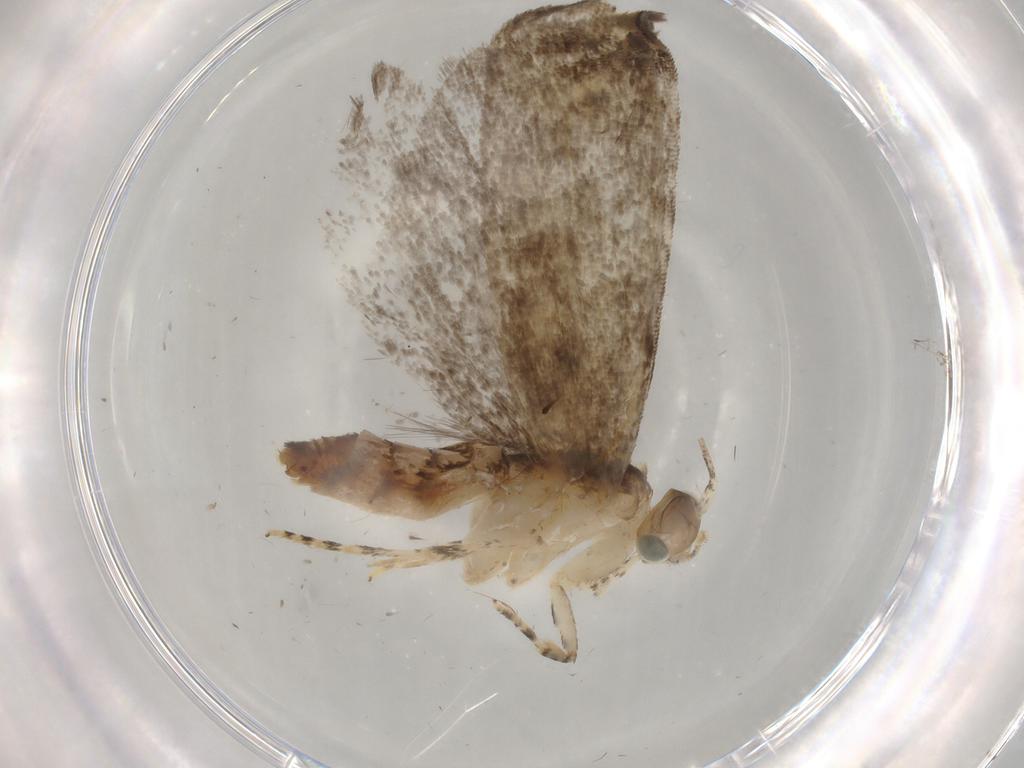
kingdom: Animalia
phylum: Arthropoda
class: Insecta
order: Lepidoptera
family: Tineidae
